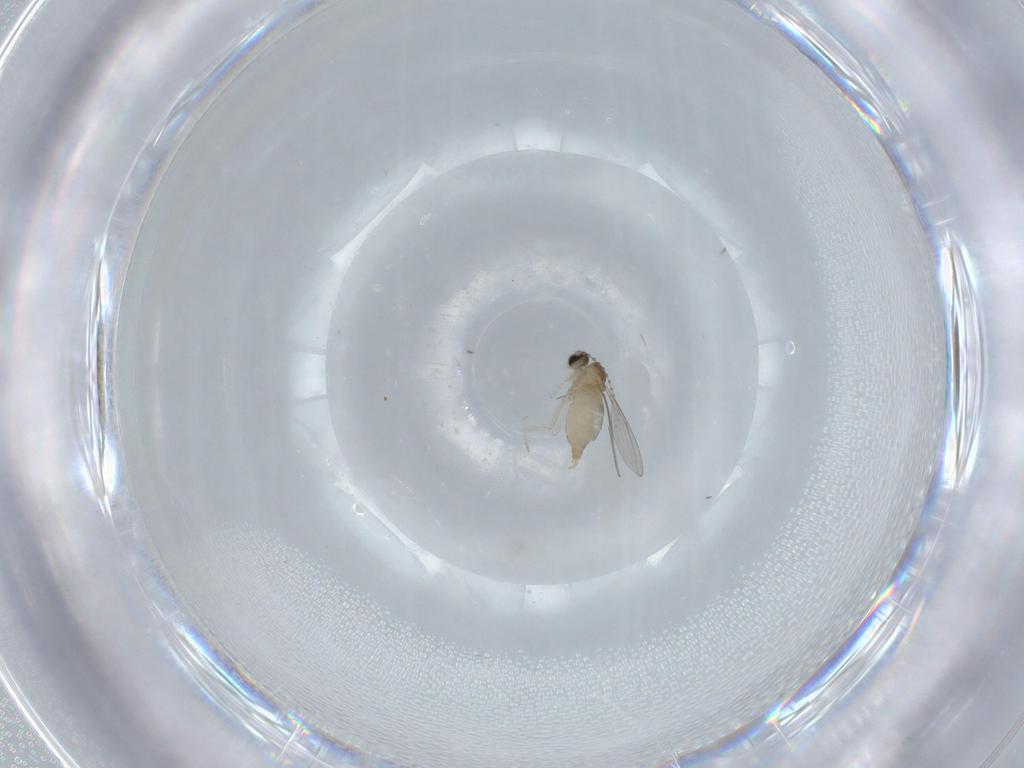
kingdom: Animalia
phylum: Arthropoda
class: Insecta
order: Diptera
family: Cecidomyiidae
